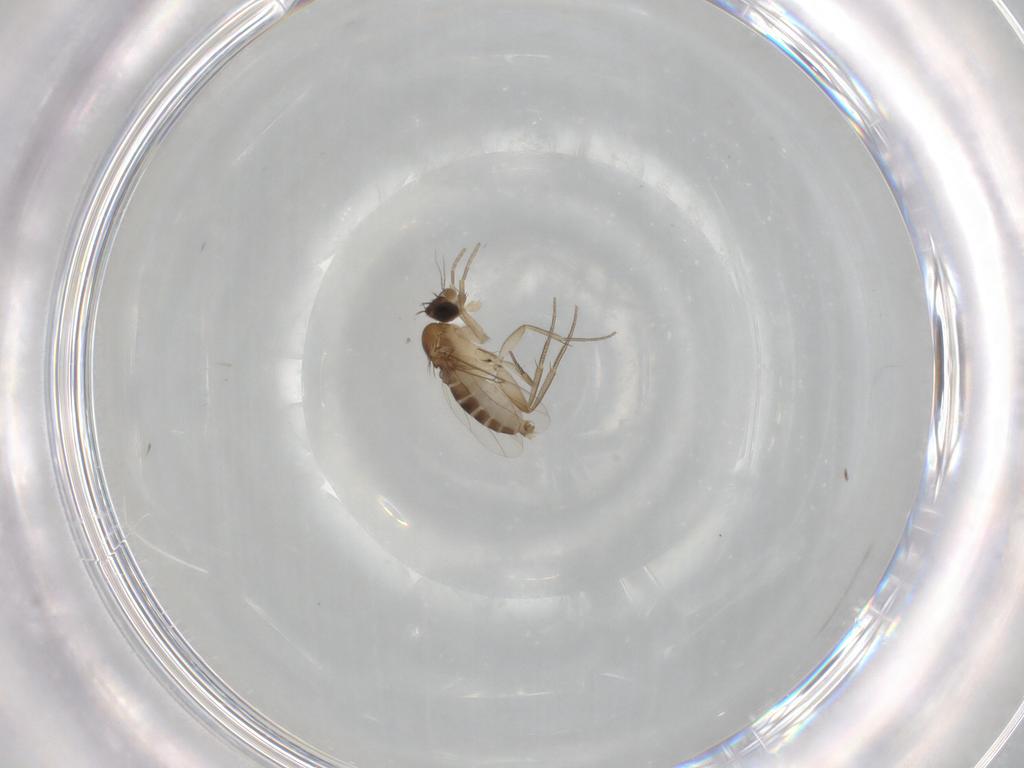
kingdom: Animalia
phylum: Arthropoda
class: Insecta
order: Diptera
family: Phoridae
